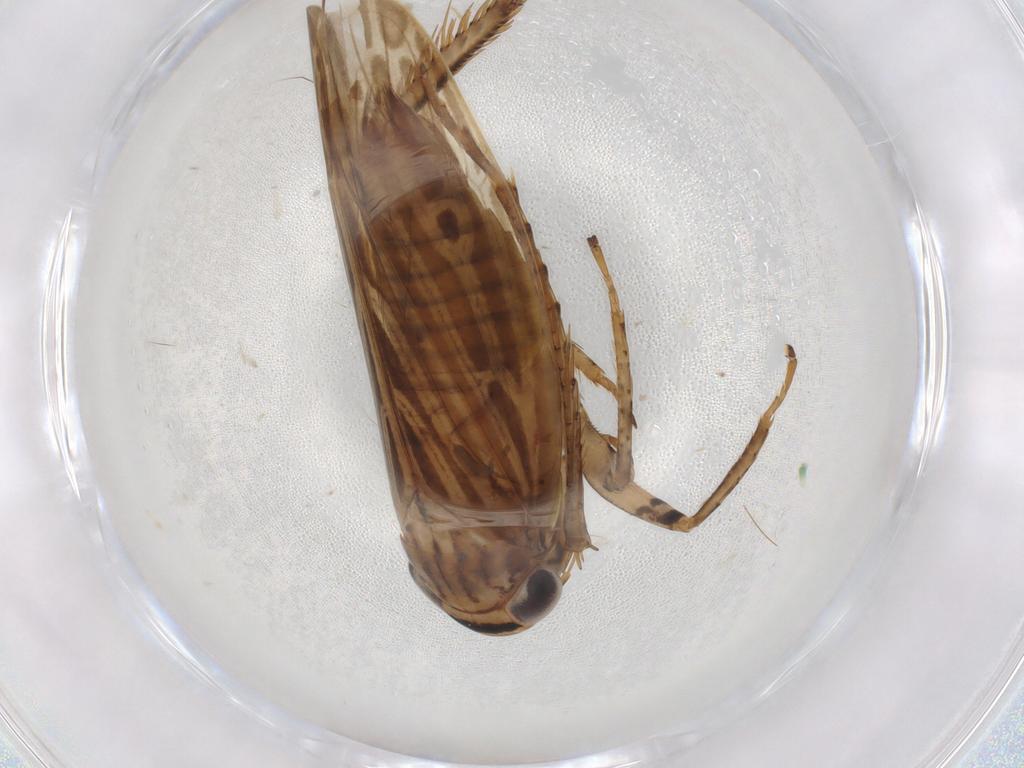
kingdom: Animalia
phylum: Arthropoda
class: Insecta
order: Hemiptera
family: Cicadellidae
